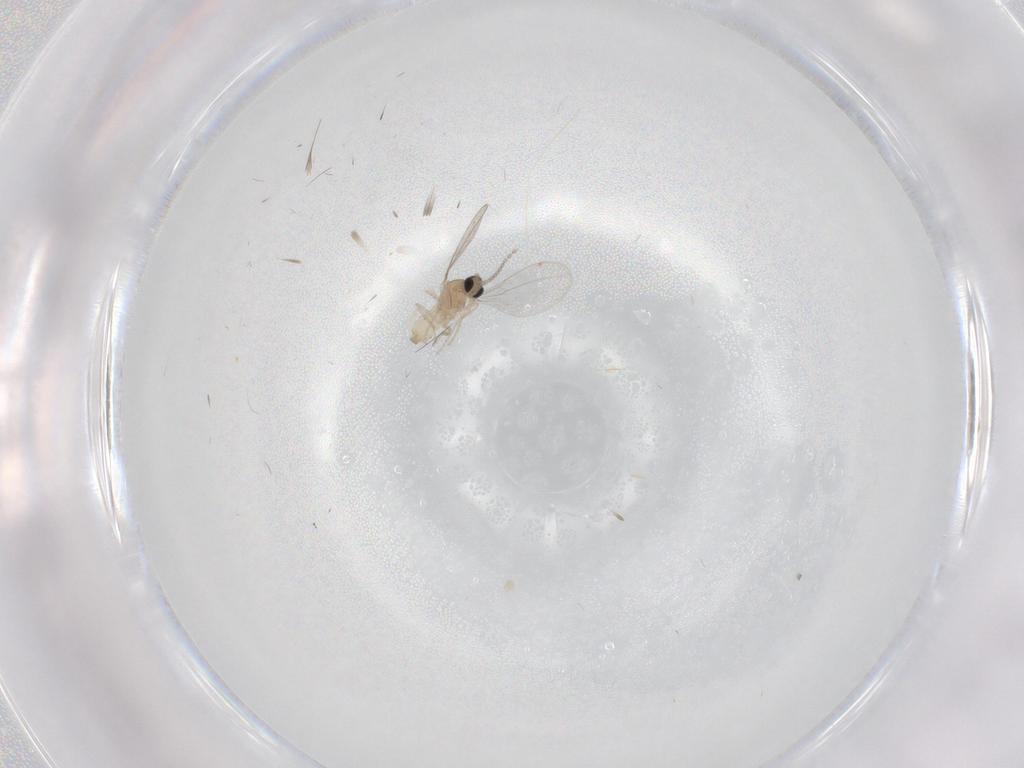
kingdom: Animalia
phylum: Arthropoda
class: Insecta
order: Diptera
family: Cecidomyiidae
